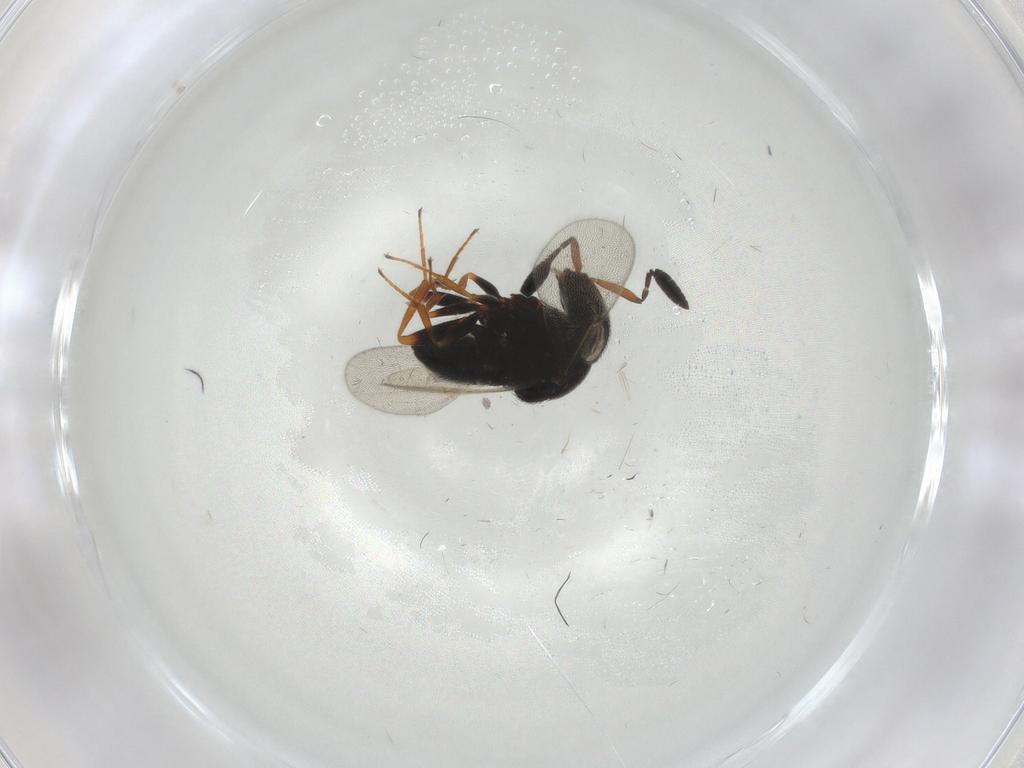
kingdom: Animalia
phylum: Arthropoda
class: Insecta
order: Hymenoptera
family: Scelionidae
